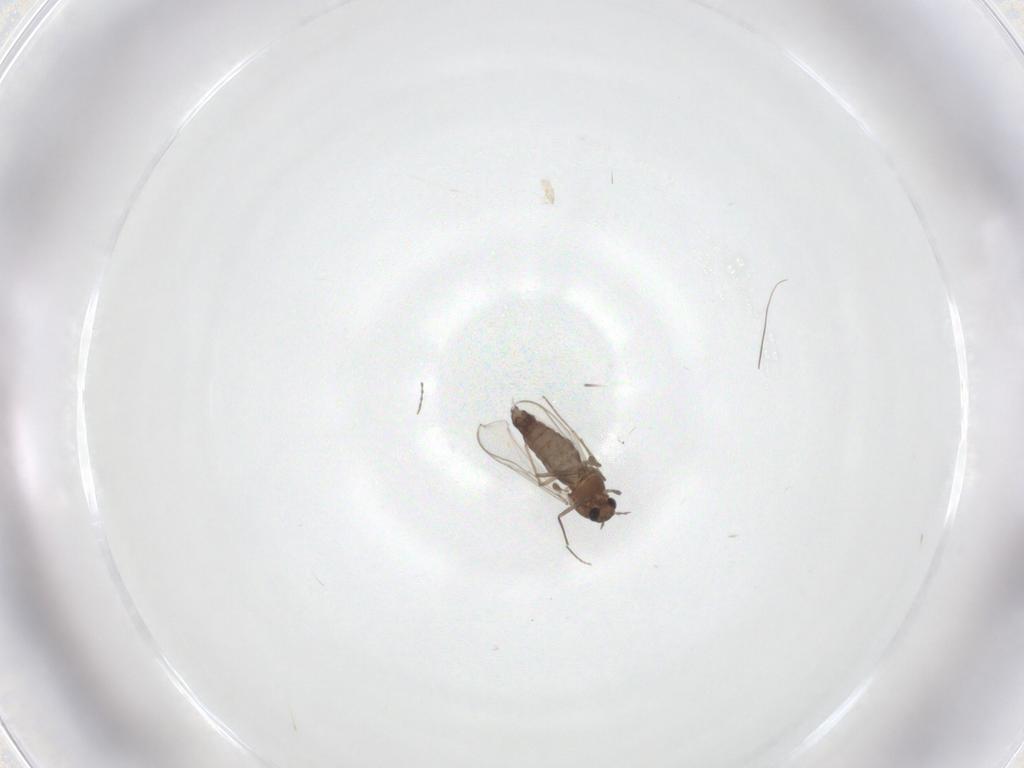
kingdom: Animalia
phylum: Arthropoda
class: Insecta
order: Diptera
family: Chironomidae
